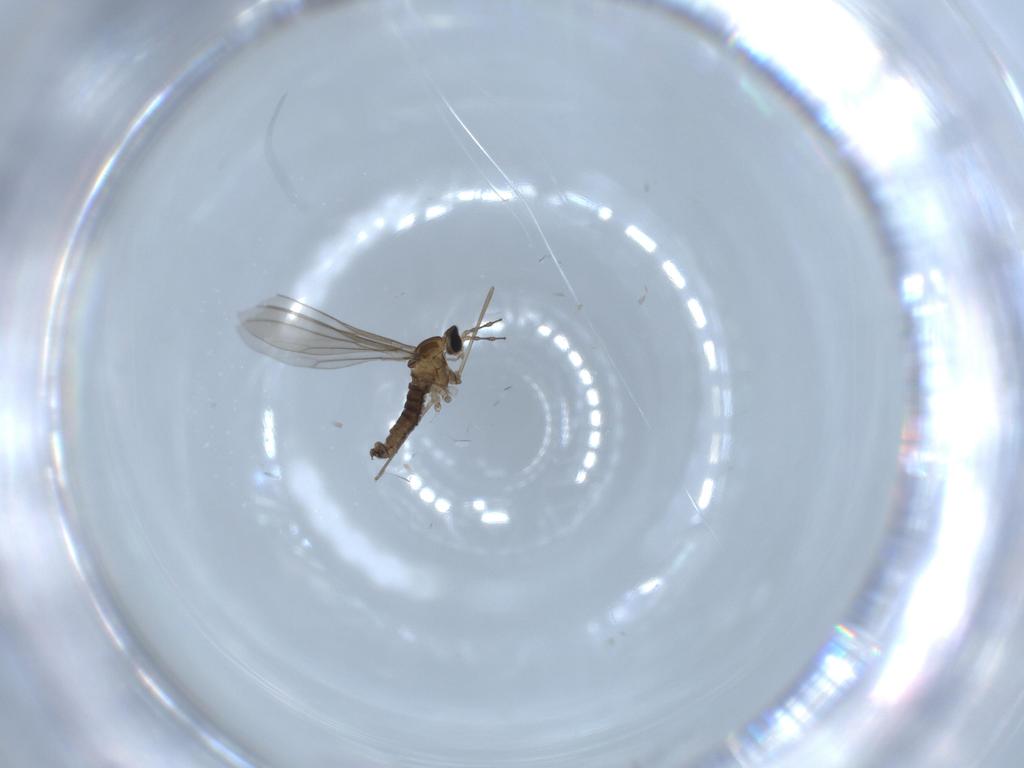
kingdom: Animalia
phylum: Arthropoda
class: Insecta
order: Diptera
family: Cecidomyiidae
